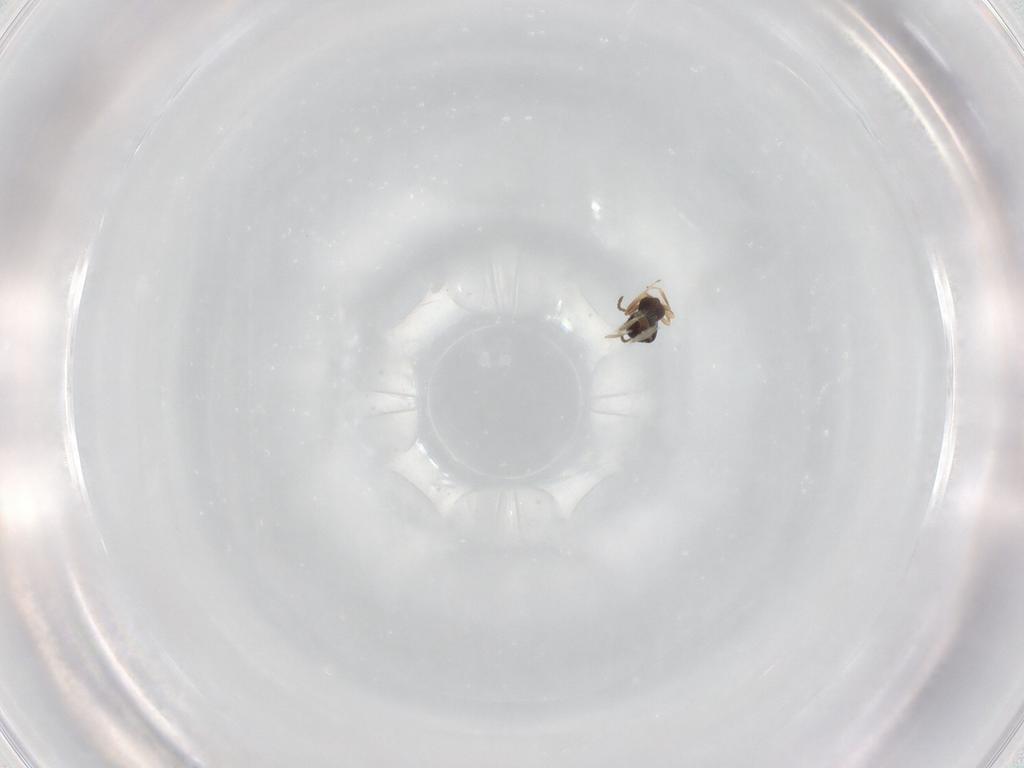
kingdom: Animalia
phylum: Arthropoda
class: Insecta
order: Hymenoptera
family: Scelionidae
